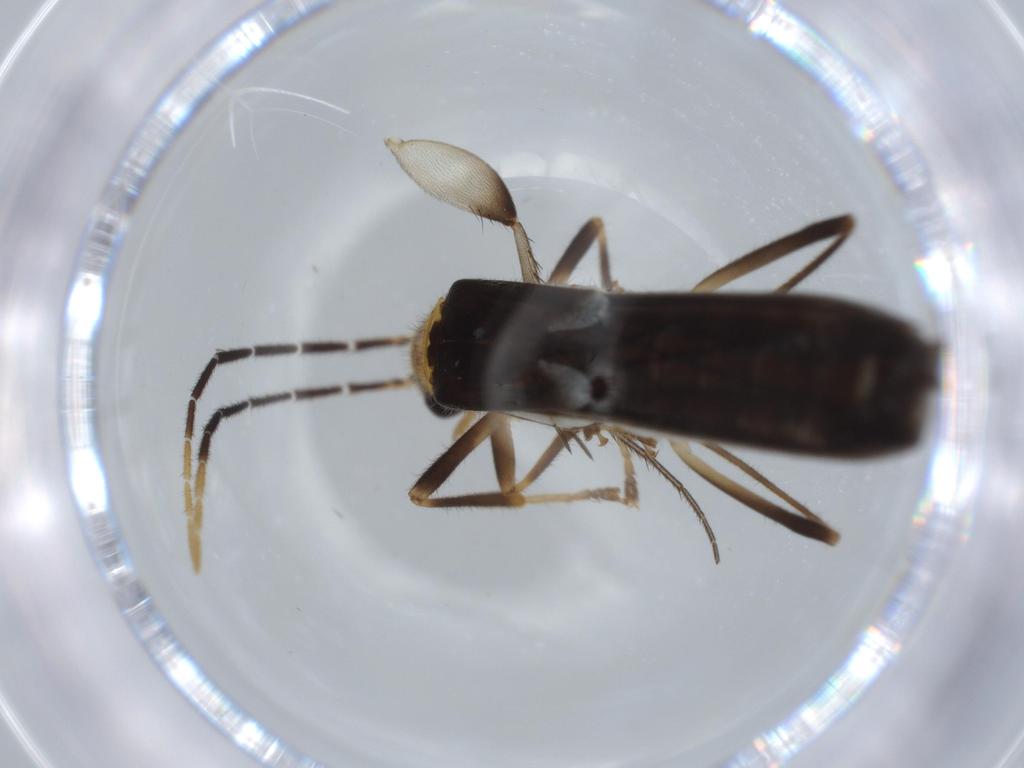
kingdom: Animalia
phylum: Arthropoda
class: Insecta
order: Coleoptera
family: Cantharidae
